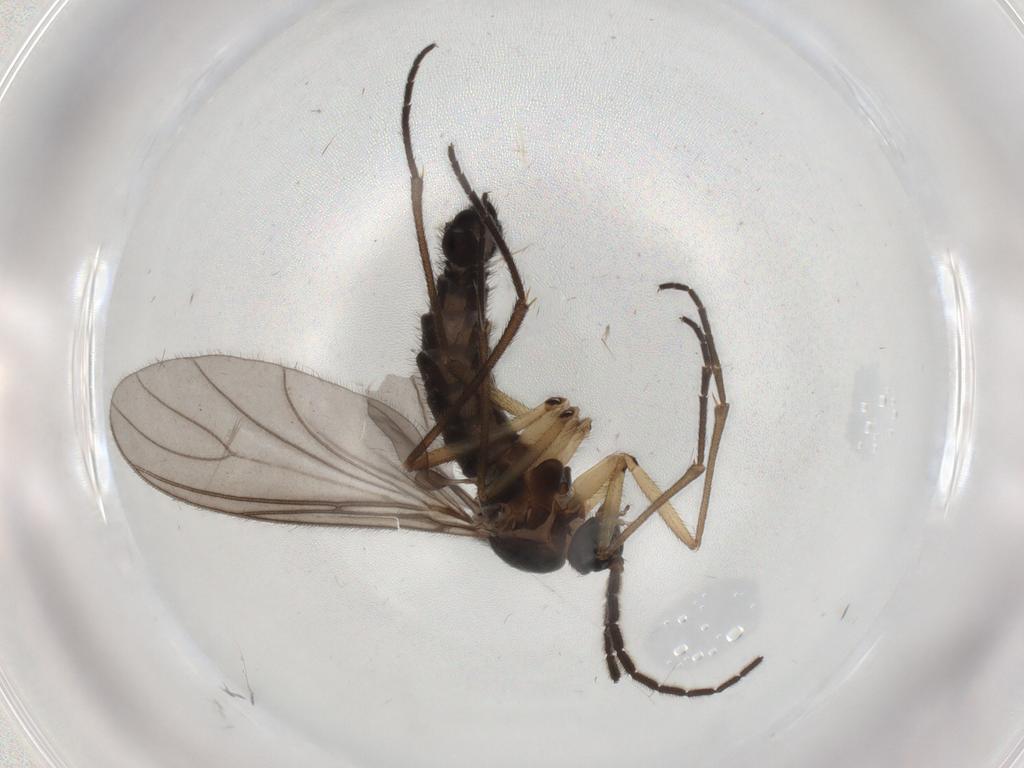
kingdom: Animalia
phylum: Arthropoda
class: Insecta
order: Diptera
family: Sciaridae
